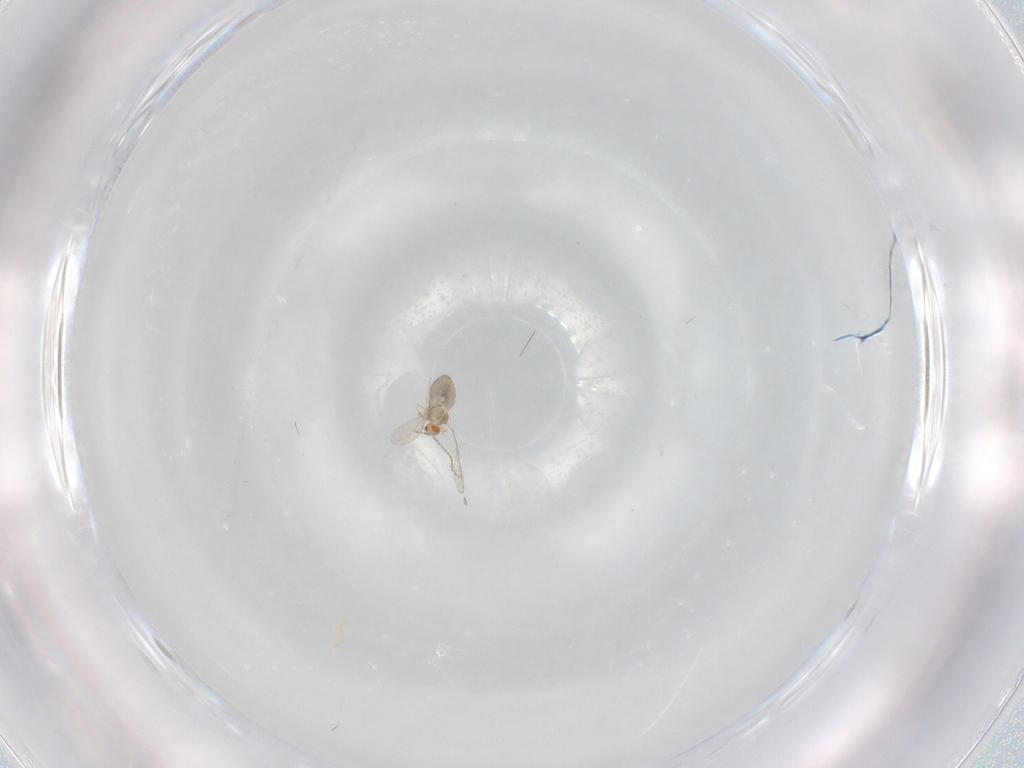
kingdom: Animalia
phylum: Arthropoda
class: Insecta
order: Diptera
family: Cecidomyiidae
